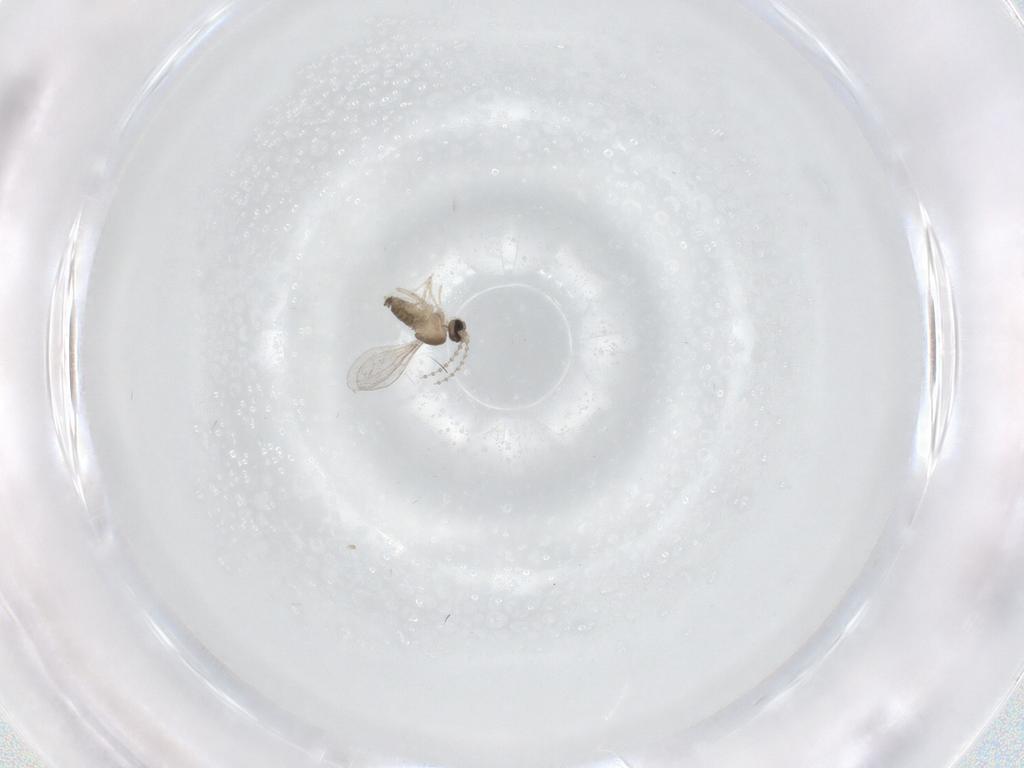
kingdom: Animalia
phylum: Arthropoda
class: Insecta
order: Diptera
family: Cecidomyiidae
